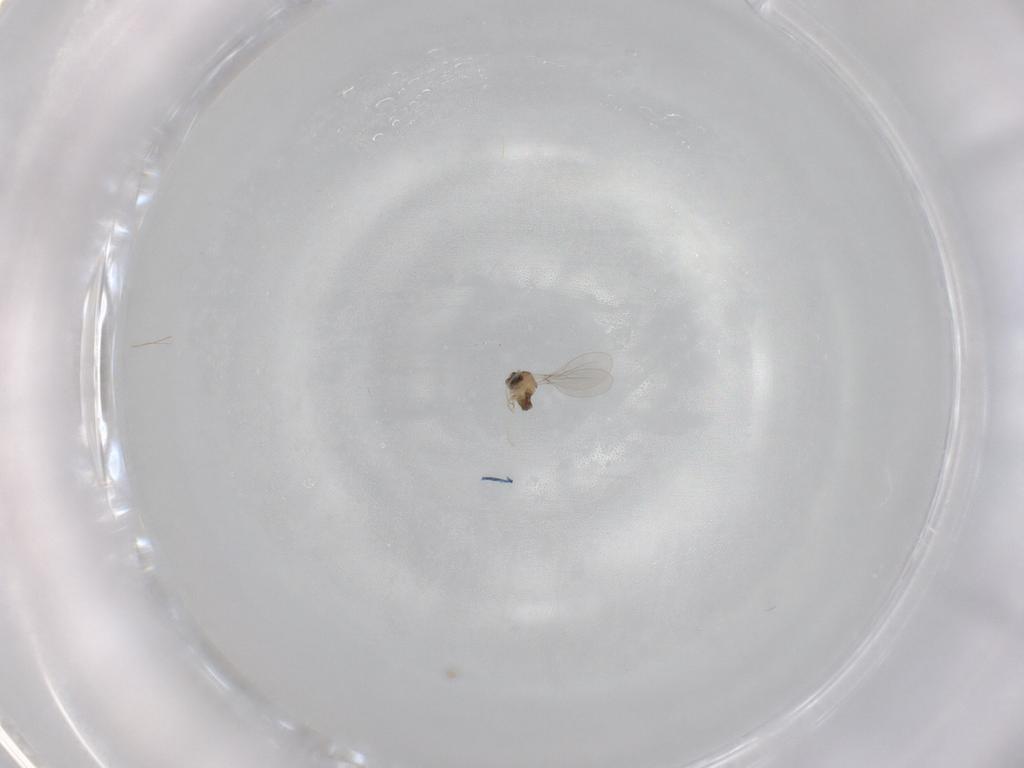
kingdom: Animalia
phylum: Arthropoda
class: Insecta
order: Diptera
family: Cecidomyiidae
